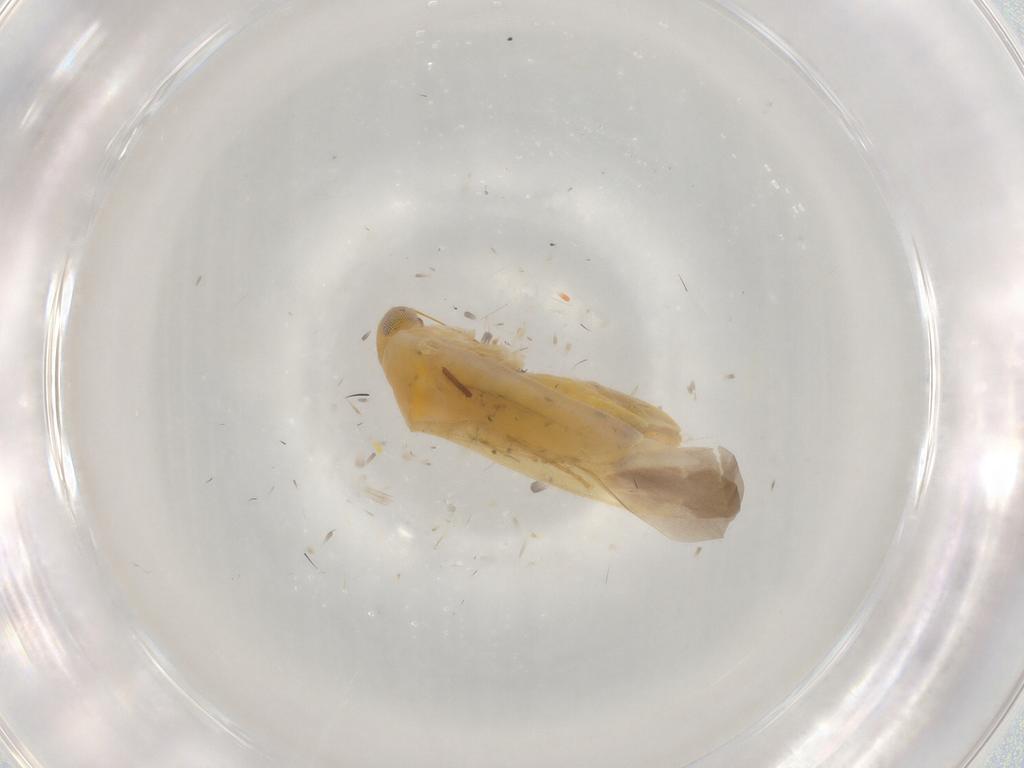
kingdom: Animalia
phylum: Arthropoda
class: Insecta
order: Hemiptera
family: Miridae
